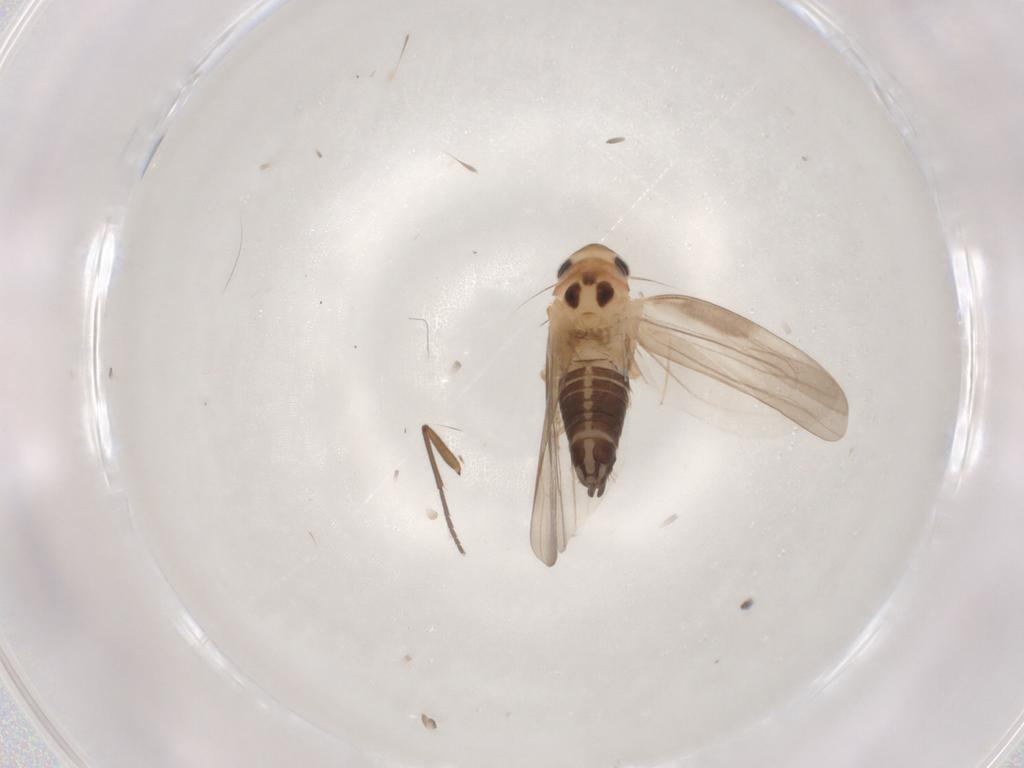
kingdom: Animalia
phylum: Arthropoda
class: Insecta
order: Hemiptera
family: Cicadellidae
